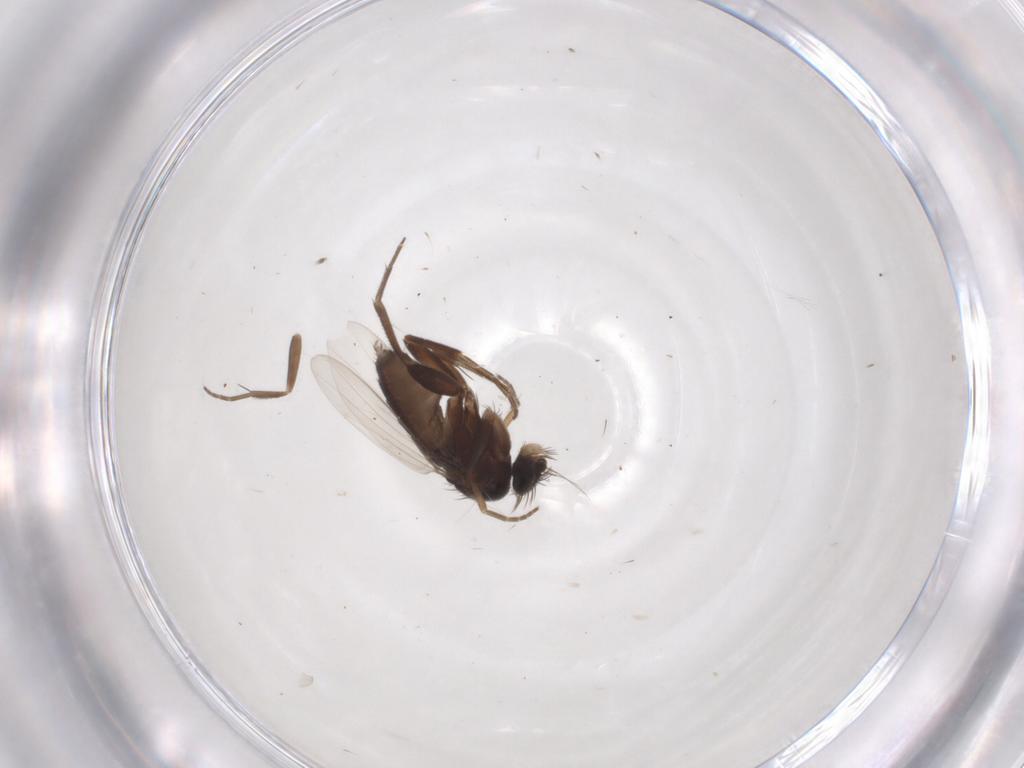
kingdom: Animalia
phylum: Arthropoda
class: Insecta
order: Diptera
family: Phoridae
